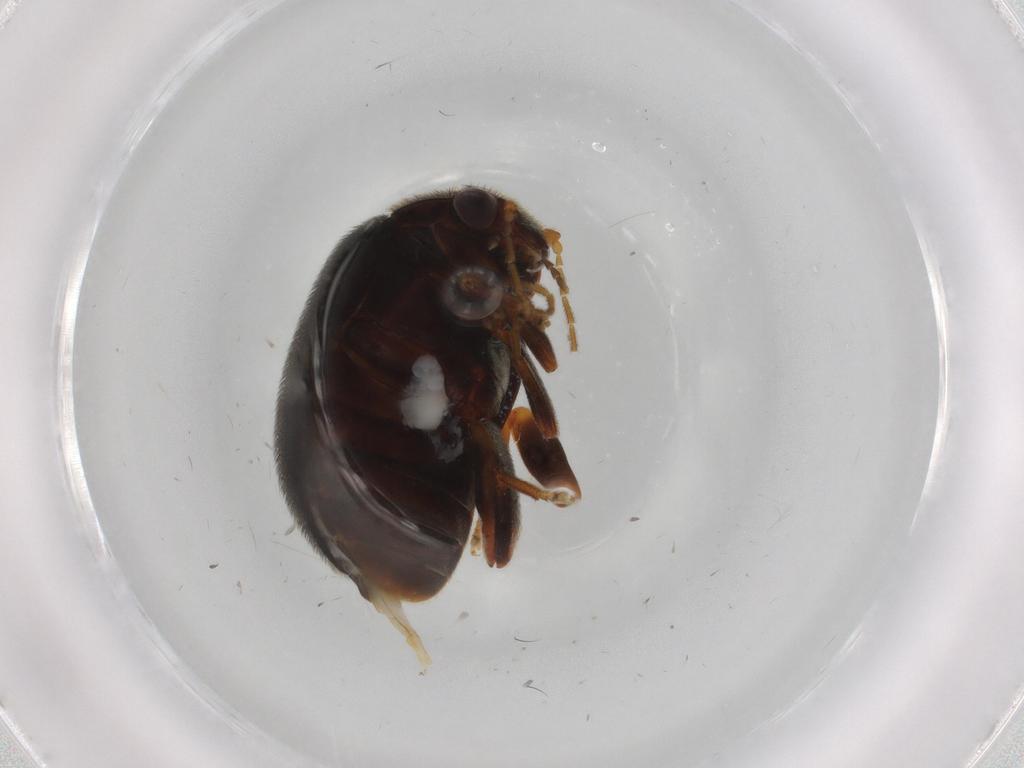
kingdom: Animalia
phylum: Arthropoda
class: Insecta
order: Coleoptera
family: Scirtidae
